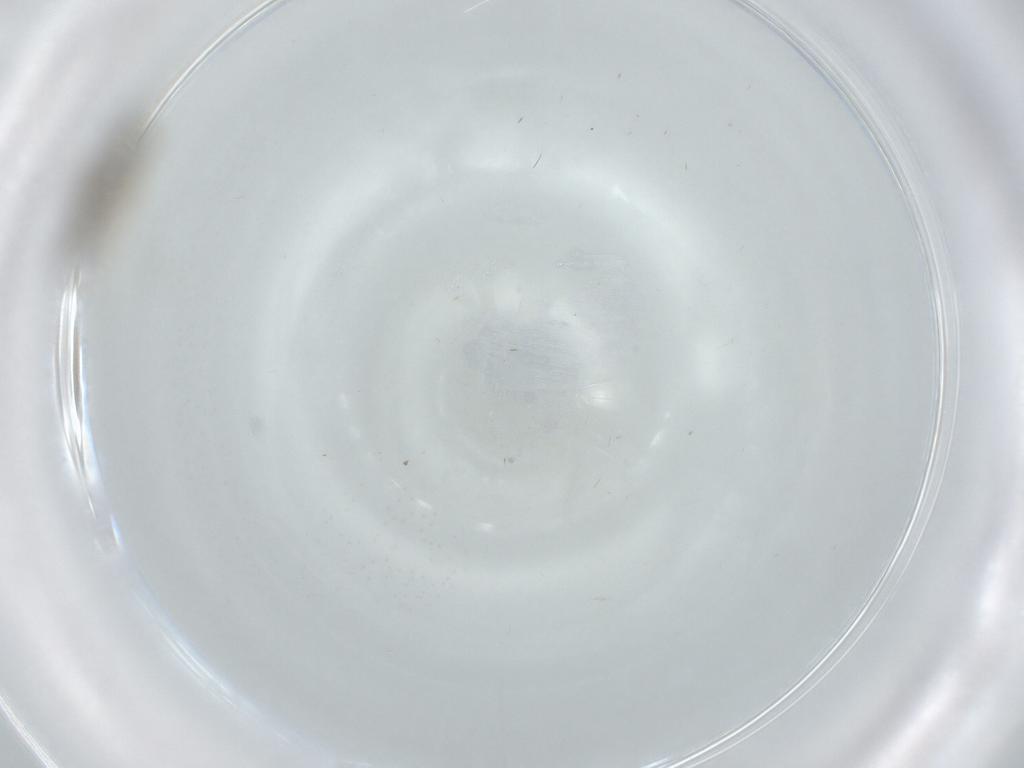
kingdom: Animalia
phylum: Arthropoda
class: Insecta
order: Diptera
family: Cecidomyiidae
